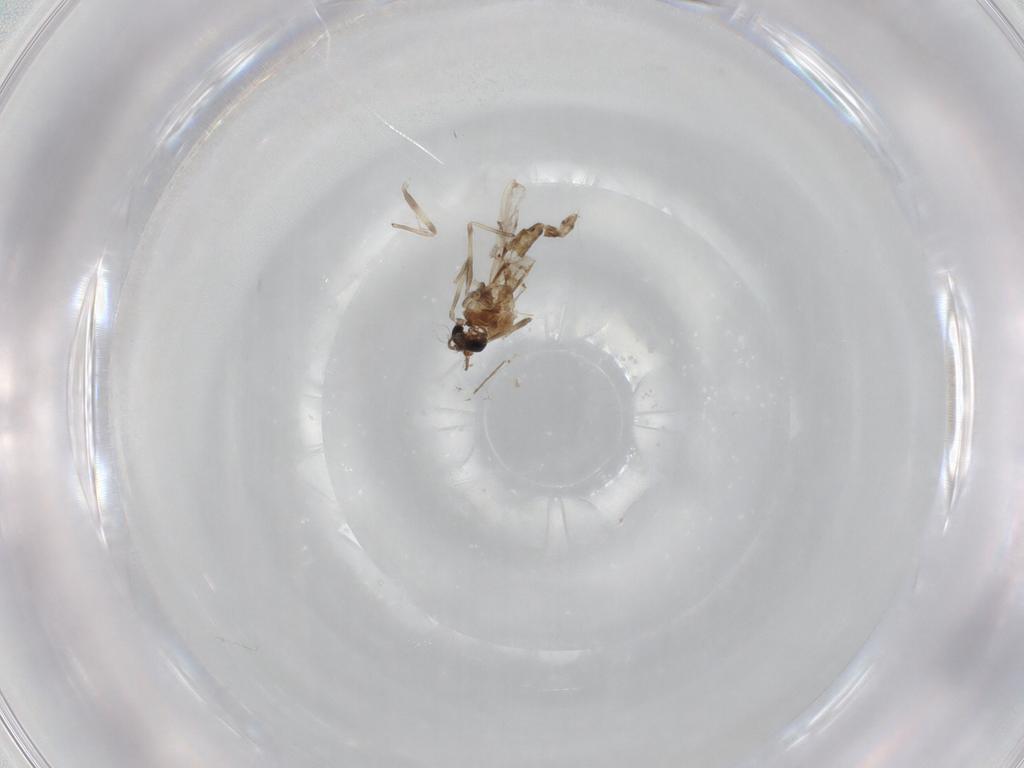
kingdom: Animalia
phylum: Arthropoda
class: Insecta
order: Diptera
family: Chironomidae
